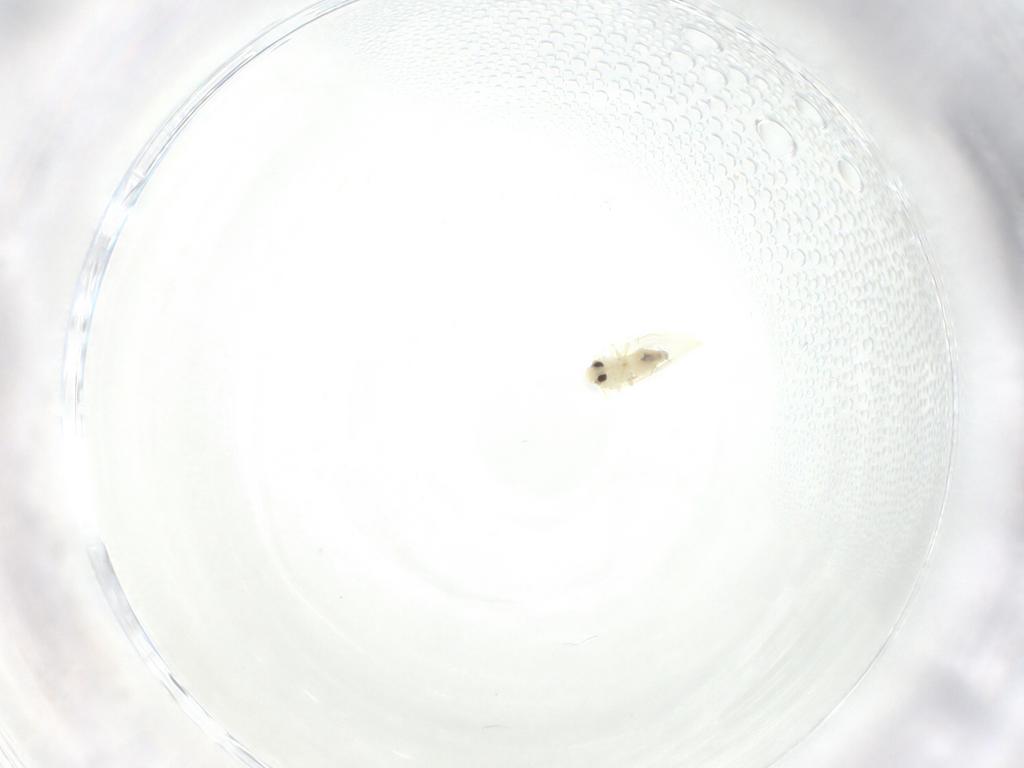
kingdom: Animalia
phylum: Arthropoda
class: Insecta
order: Hemiptera
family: Aleyrodidae
